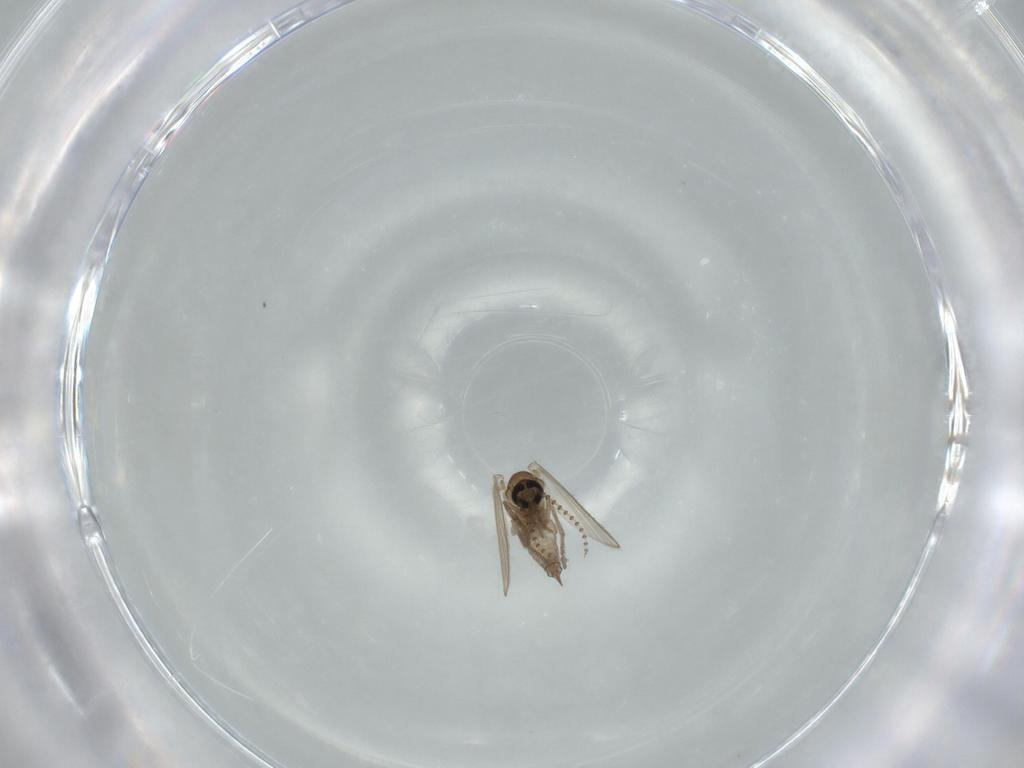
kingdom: Animalia
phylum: Arthropoda
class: Insecta
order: Diptera
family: Psychodidae
